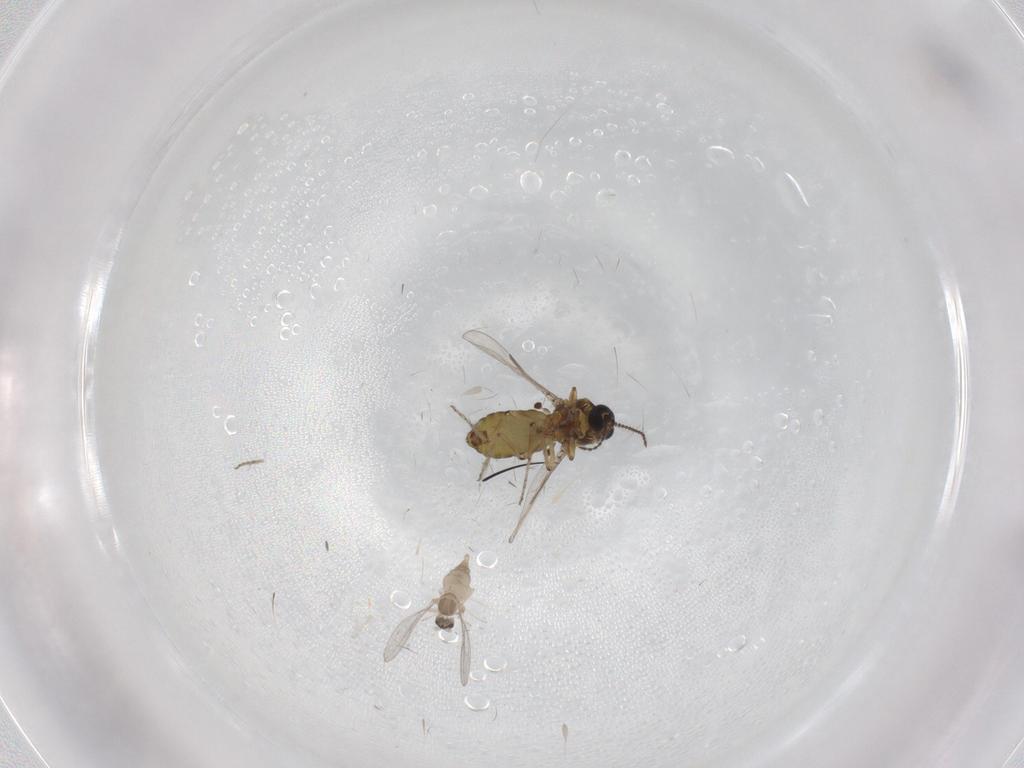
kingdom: Animalia
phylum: Arthropoda
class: Insecta
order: Diptera
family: Ceratopogonidae
